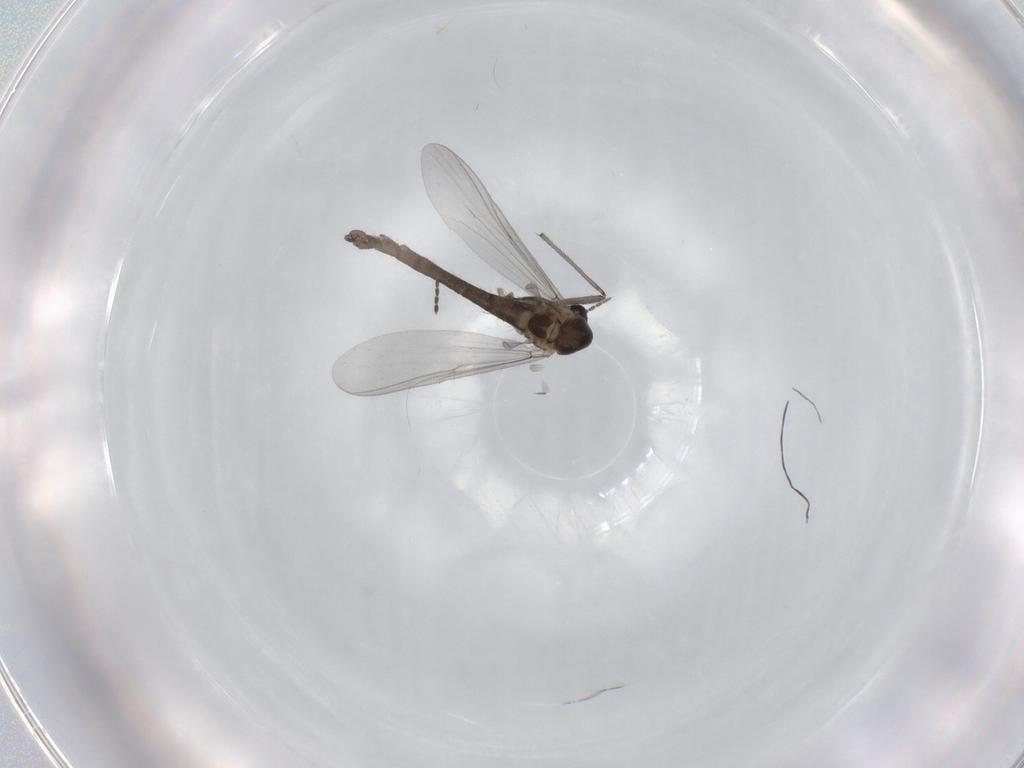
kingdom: Animalia
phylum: Arthropoda
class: Insecta
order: Diptera
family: Chironomidae
